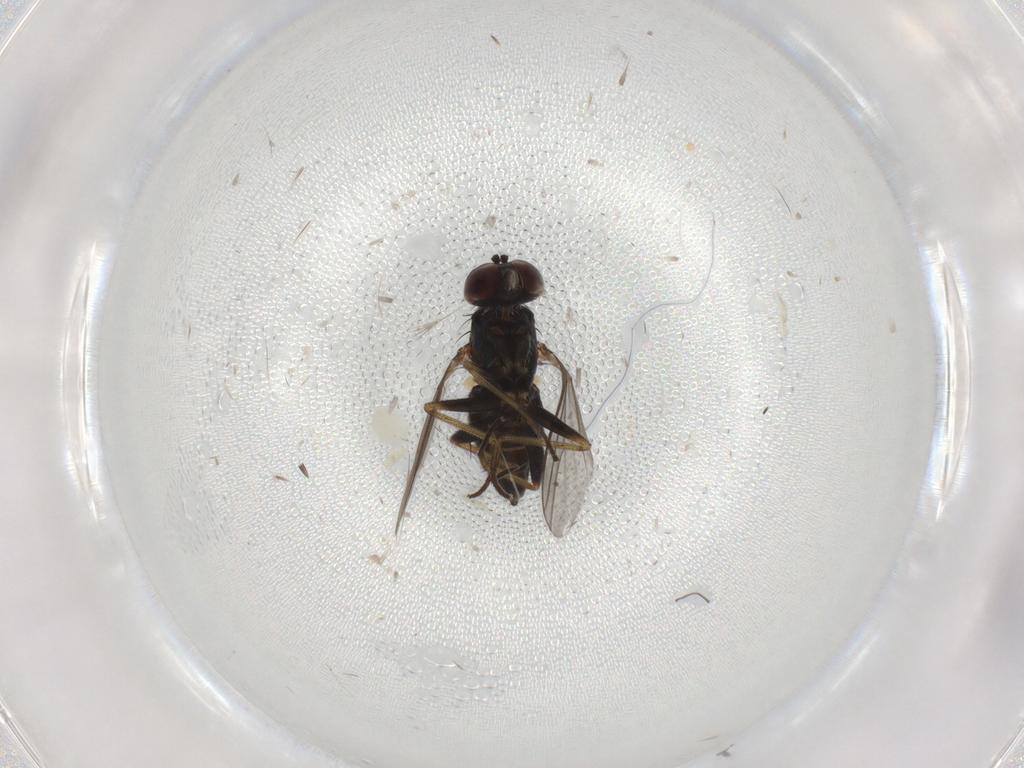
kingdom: Animalia
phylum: Arthropoda
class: Insecta
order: Diptera
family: Dolichopodidae
